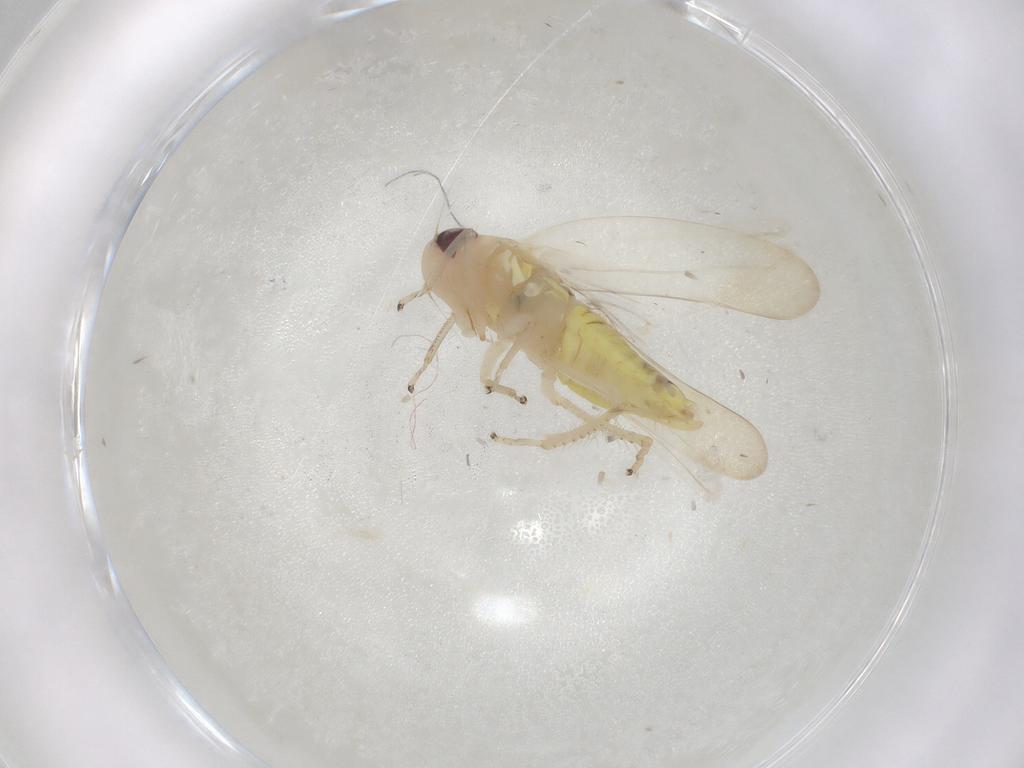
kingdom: Animalia
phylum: Arthropoda
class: Insecta
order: Hemiptera
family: Cicadellidae
